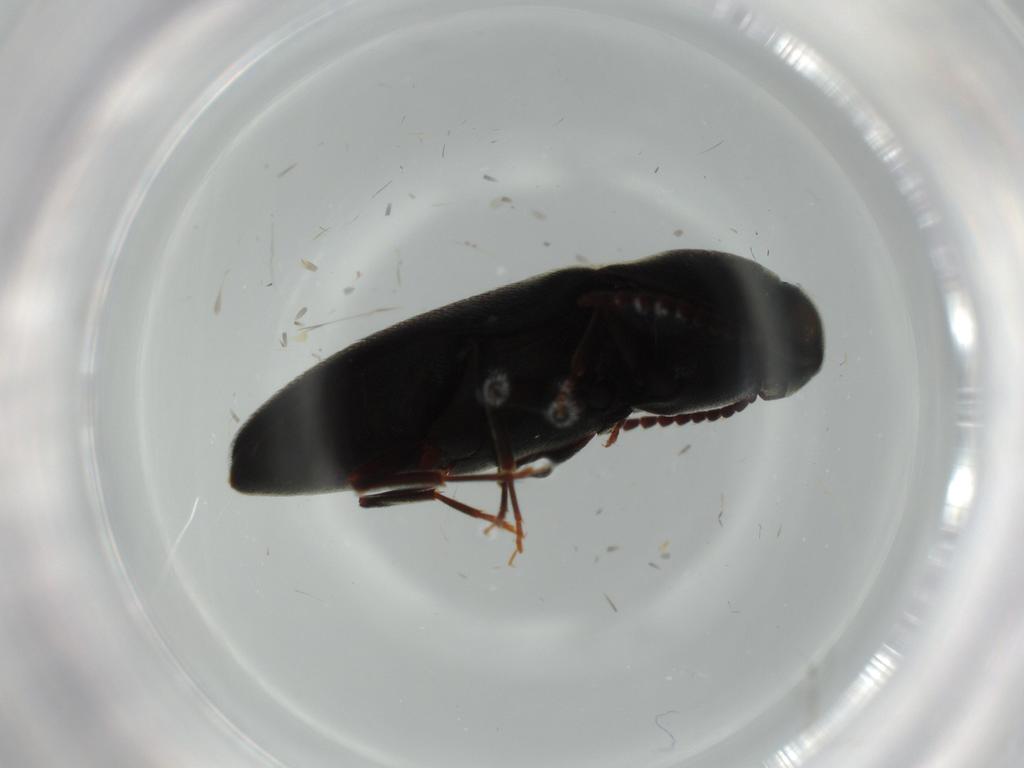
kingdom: Animalia
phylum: Arthropoda
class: Insecta
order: Coleoptera
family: Eucnemidae
